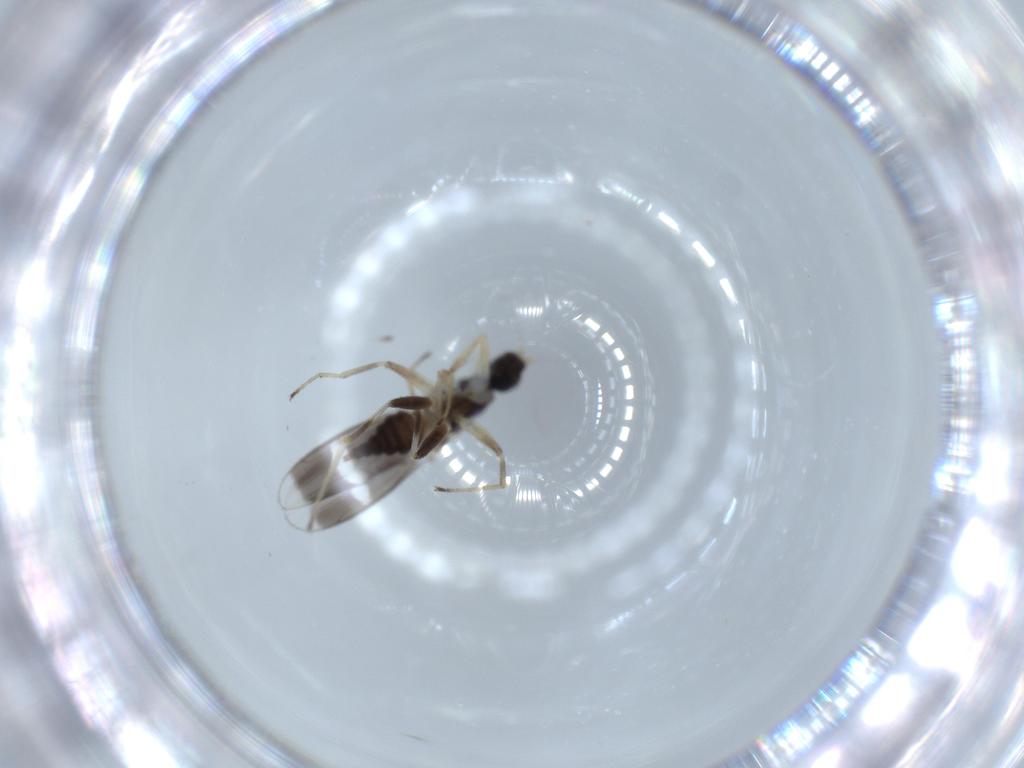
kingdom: Animalia
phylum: Arthropoda
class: Insecta
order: Diptera
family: Hybotidae
